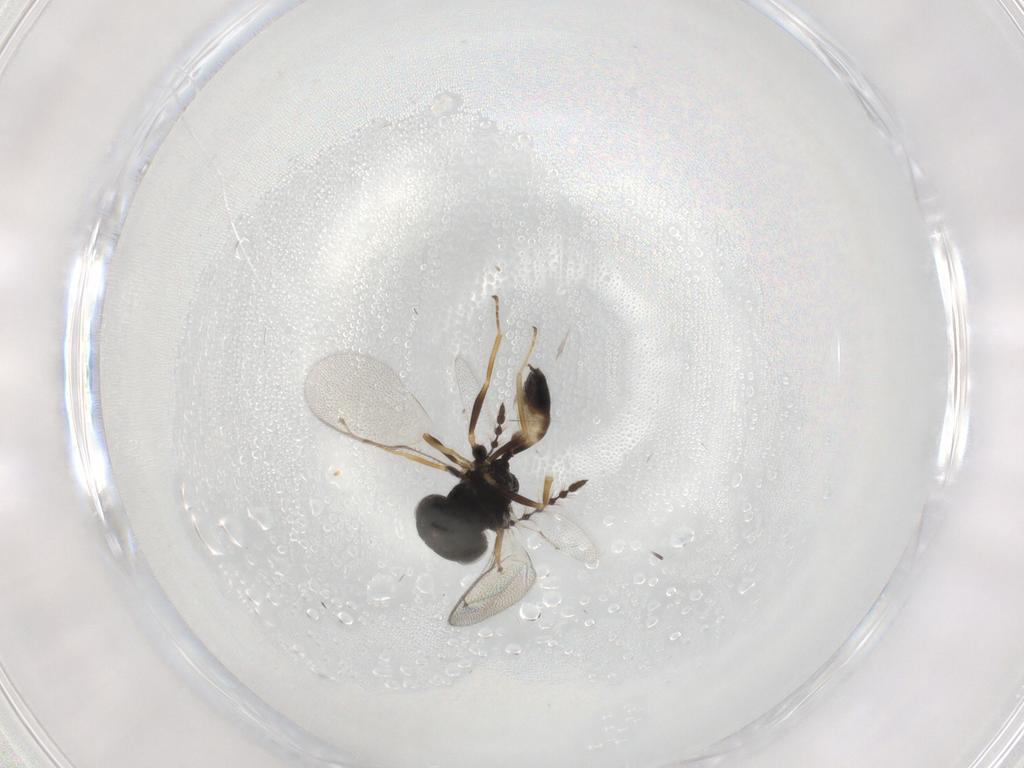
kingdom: Animalia
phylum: Arthropoda
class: Insecta
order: Hymenoptera
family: Pteromalidae
